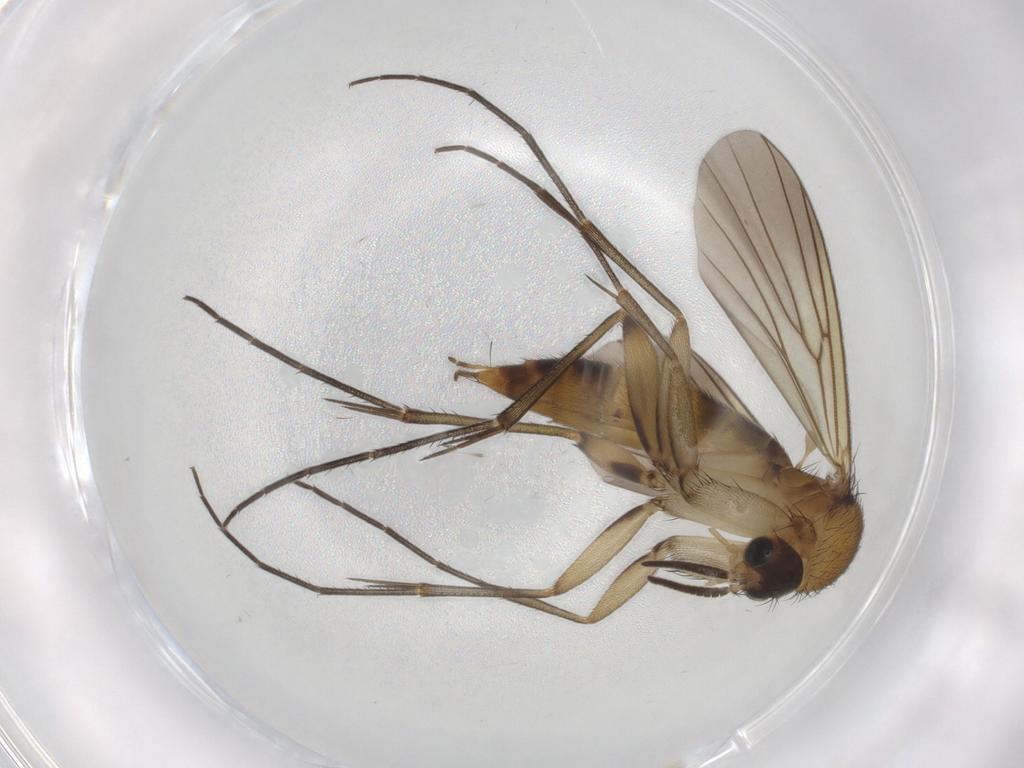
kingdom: Animalia
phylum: Arthropoda
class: Insecta
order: Diptera
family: Mycetophilidae
